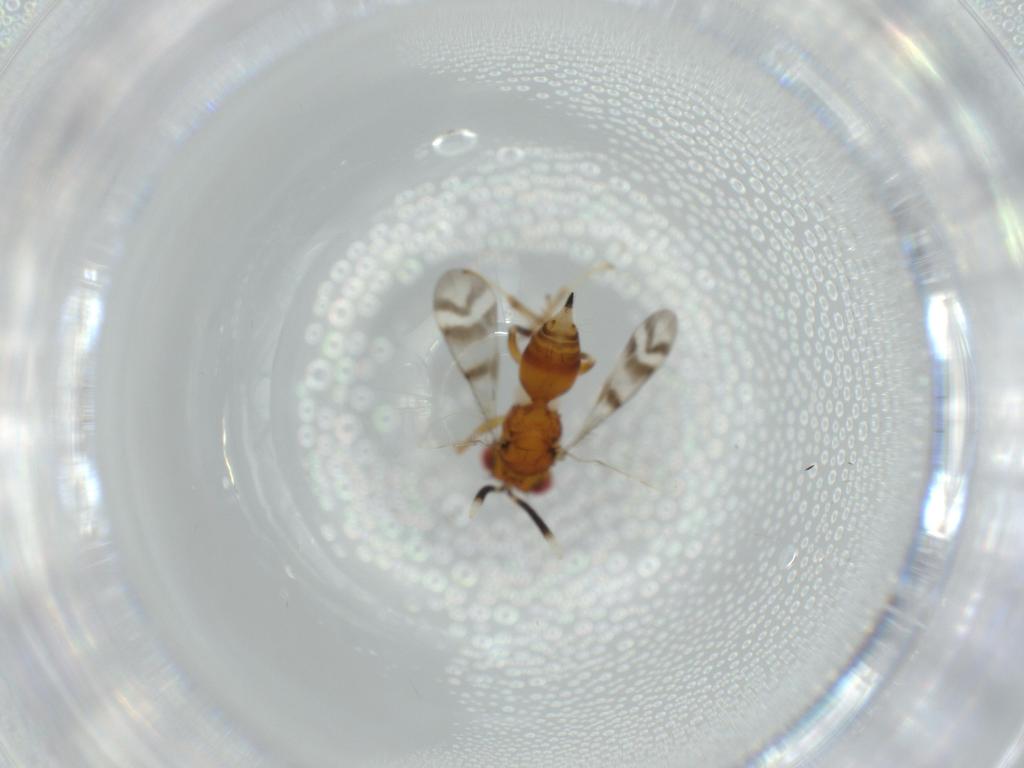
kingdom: Animalia
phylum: Arthropoda
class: Insecta
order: Hymenoptera
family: Diparidae
